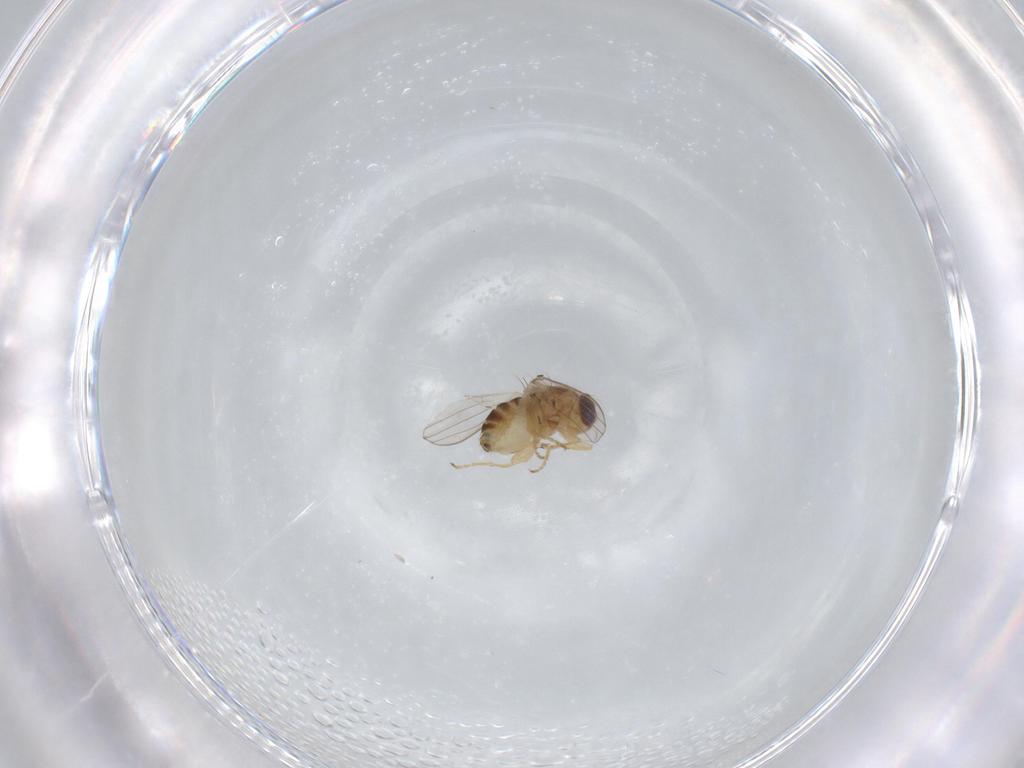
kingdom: Animalia
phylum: Arthropoda
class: Insecta
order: Diptera
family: Chyromyidae
